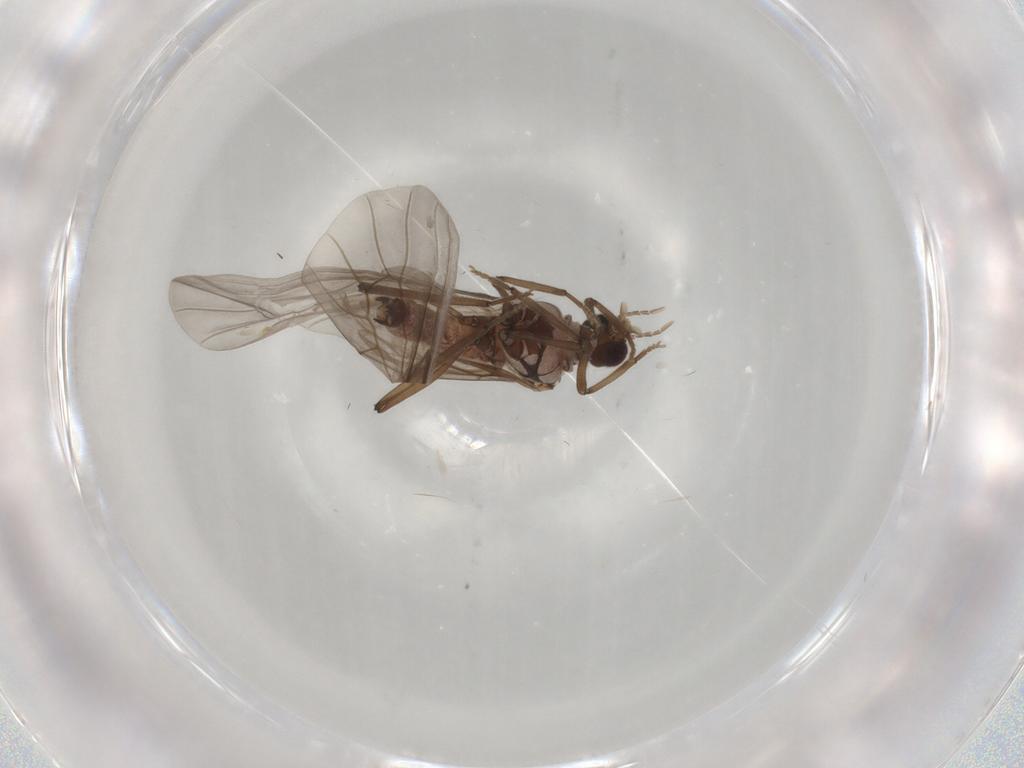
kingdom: Animalia
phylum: Arthropoda
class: Insecta
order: Neuroptera
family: Coniopterygidae
